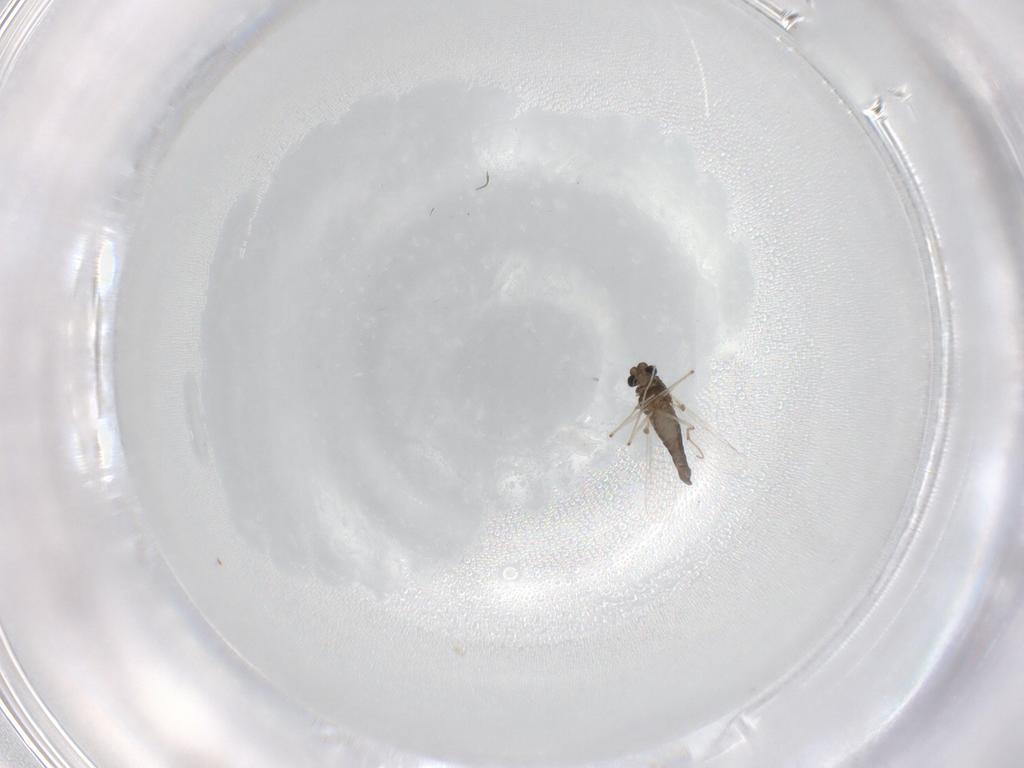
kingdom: Animalia
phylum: Arthropoda
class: Insecta
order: Diptera
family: Chironomidae
